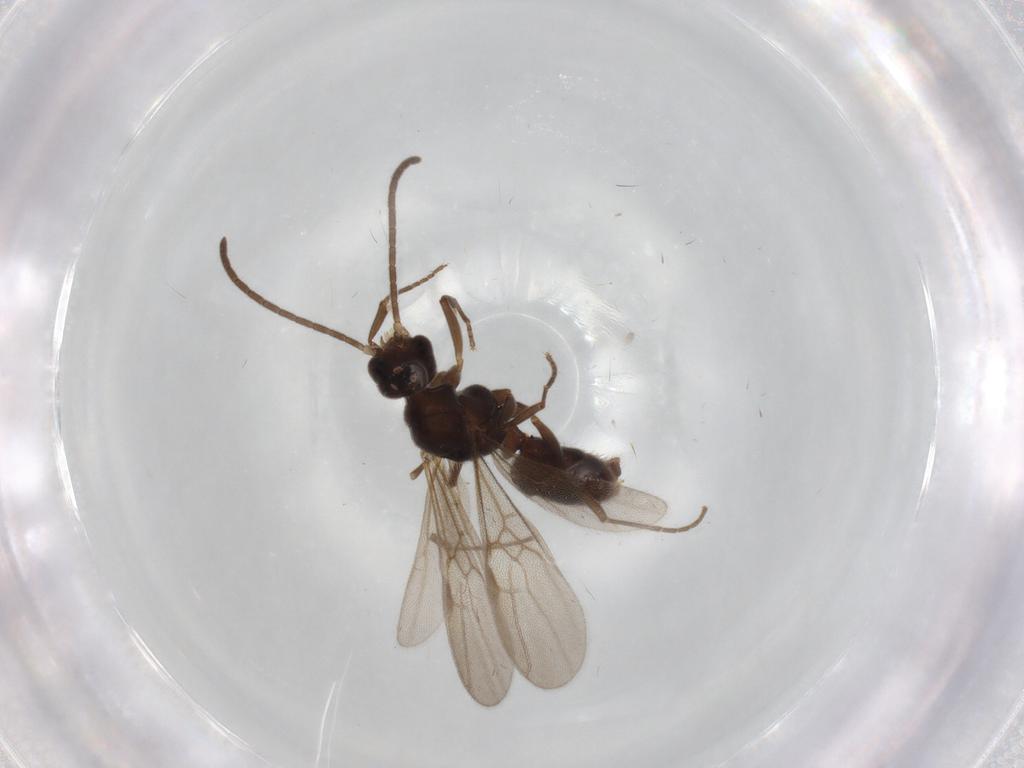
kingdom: Animalia
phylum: Arthropoda
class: Insecta
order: Hymenoptera
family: Formicidae
